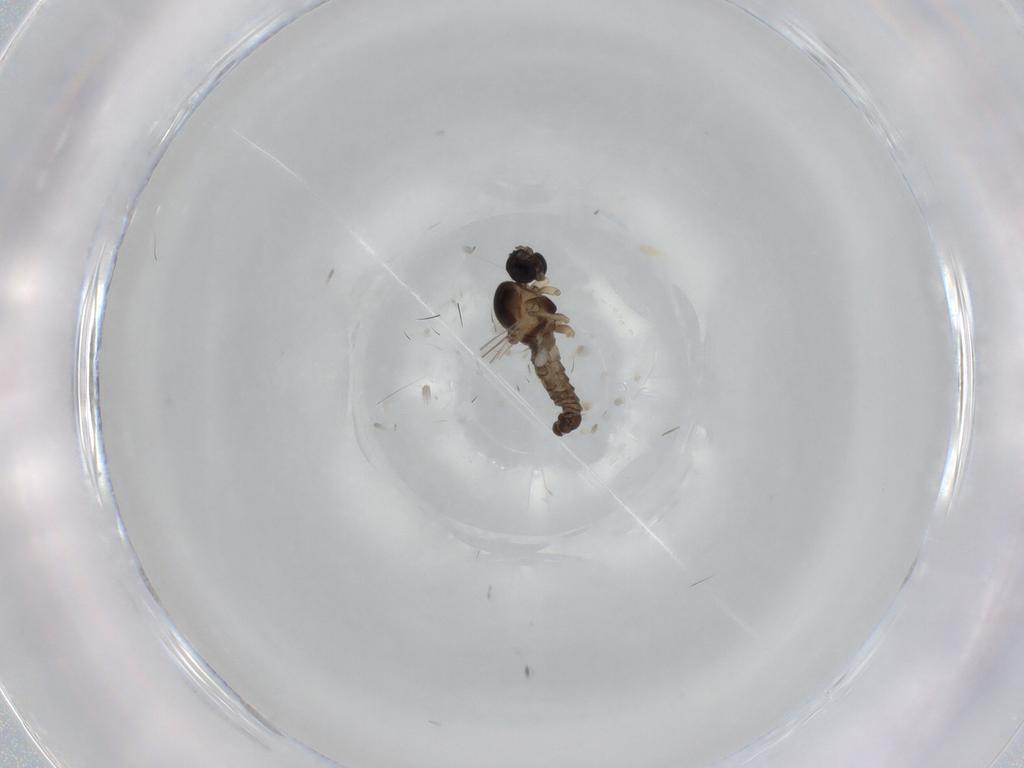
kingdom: Animalia
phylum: Arthropoda
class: Insecta
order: Diptera
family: Cecidomyiidae
